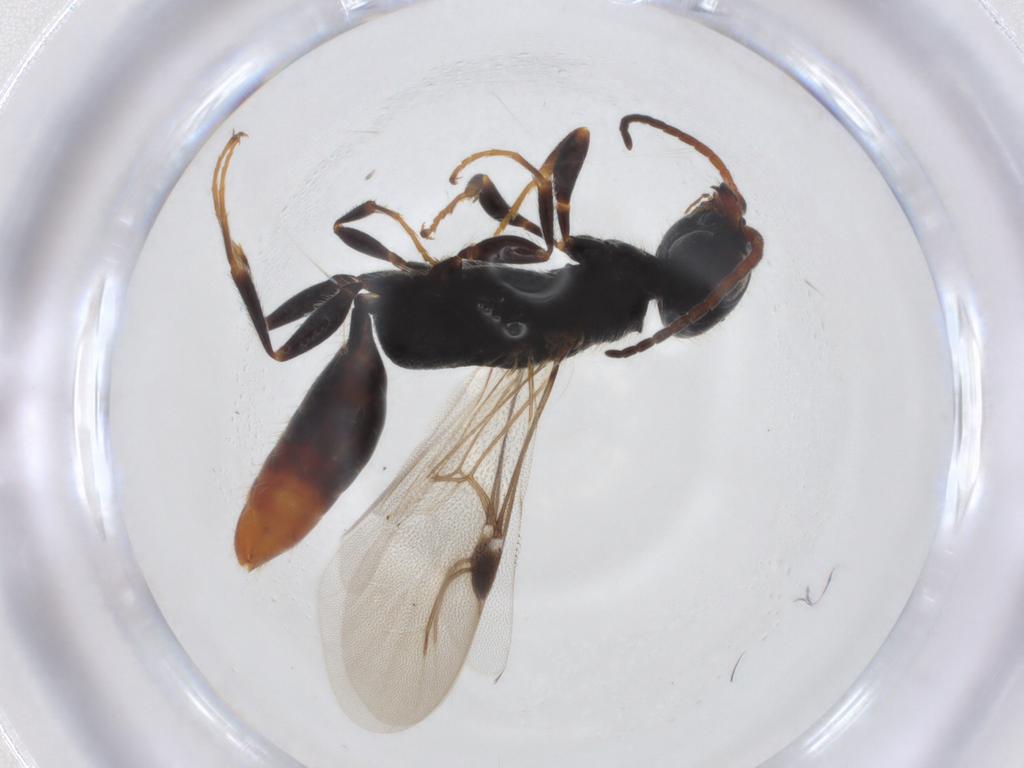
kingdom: Animalia
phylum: Arthropoda
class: Insecta
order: Hymenoptera
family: Bethylidae
